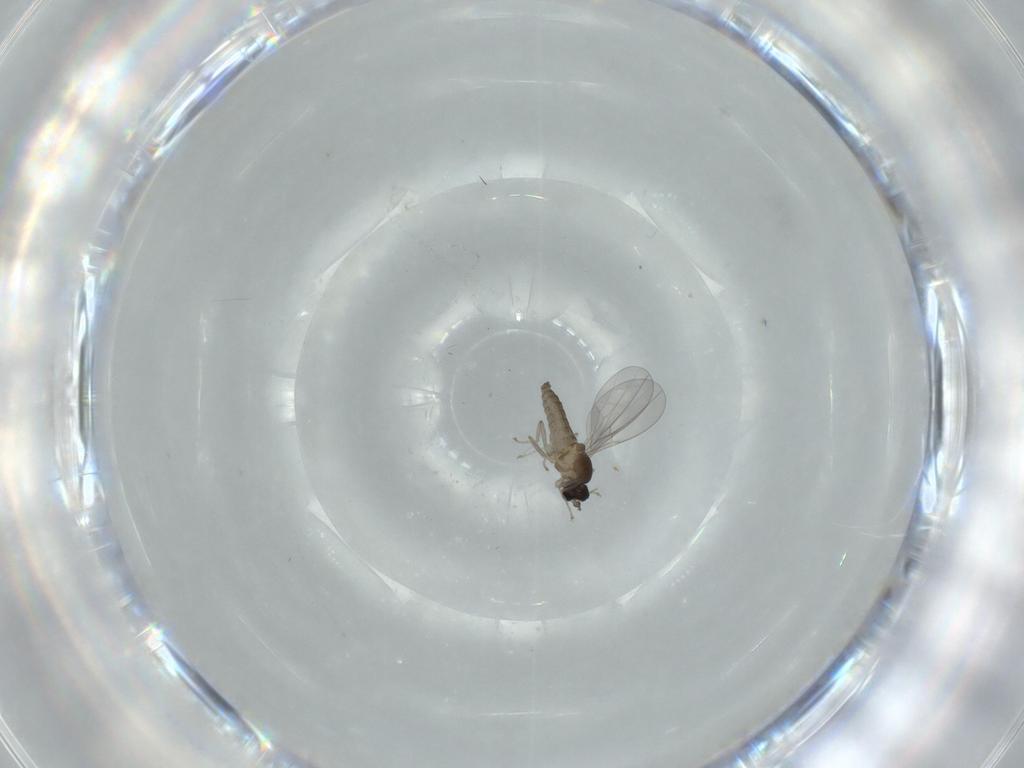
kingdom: Animalia
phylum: Arthropoda
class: Insecta
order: Diptera
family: Cecidomyiidae
